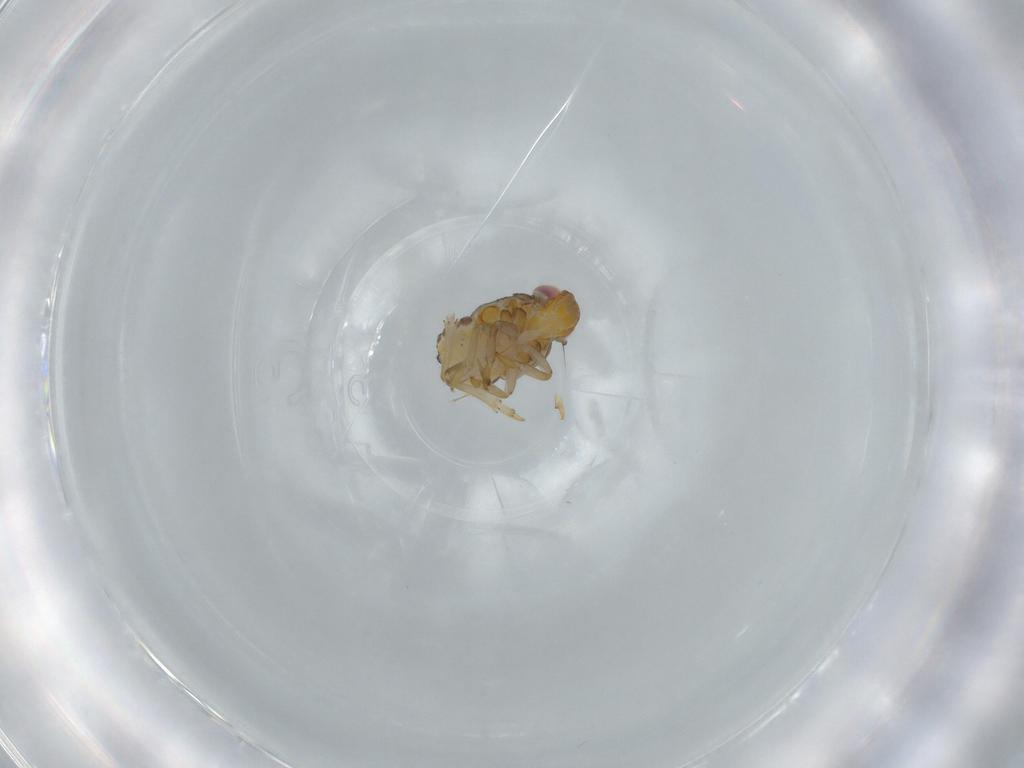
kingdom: Animalia
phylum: Arthropoda
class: Insecta
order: Hemiptera
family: Issidae
